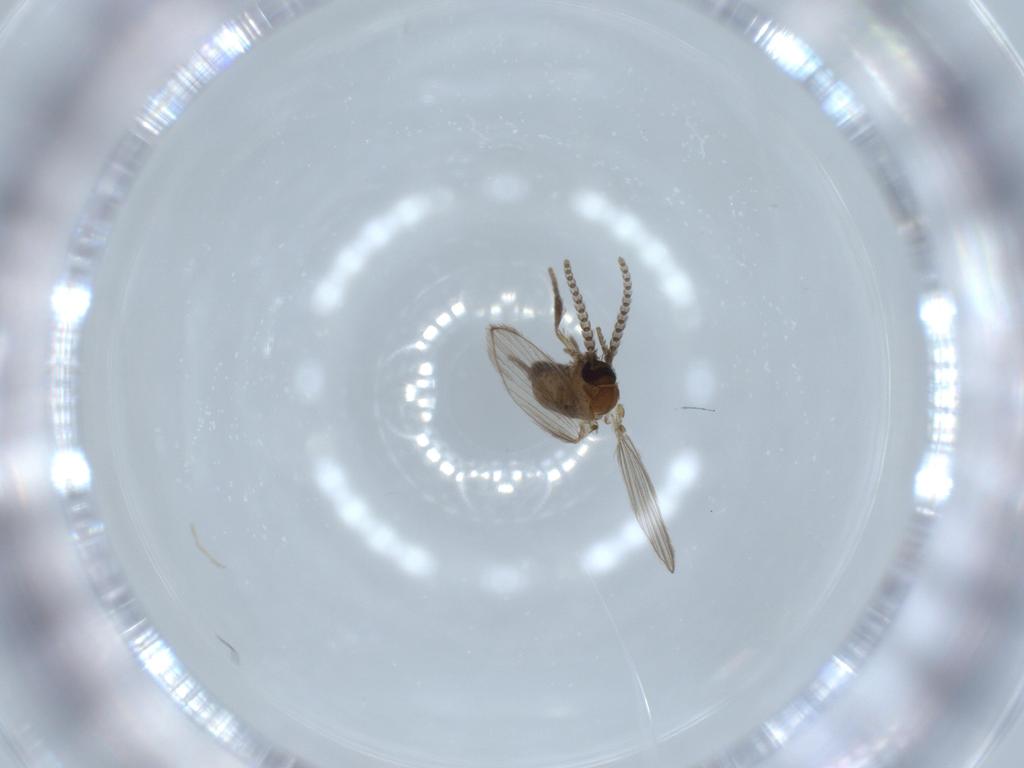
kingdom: Animalia
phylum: Arthropoda
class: Insecta
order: Diptera
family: Psychodidae
